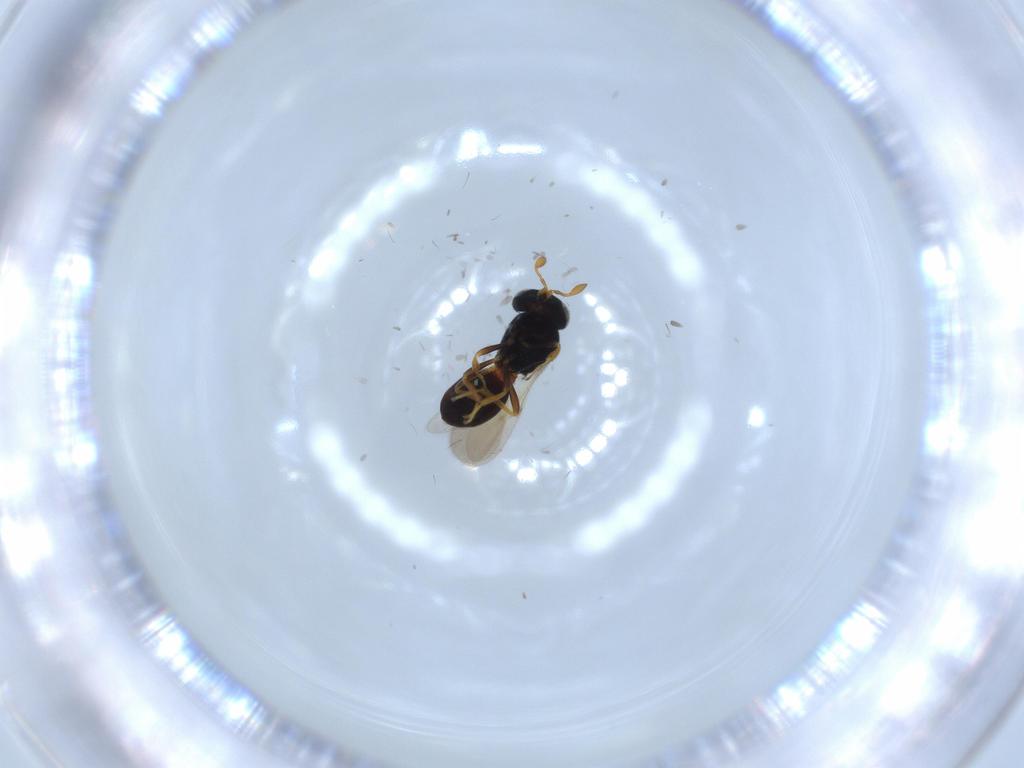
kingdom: Animalia
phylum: Arthropoda
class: Insecta
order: Hymenoptera
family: Scelionidae
